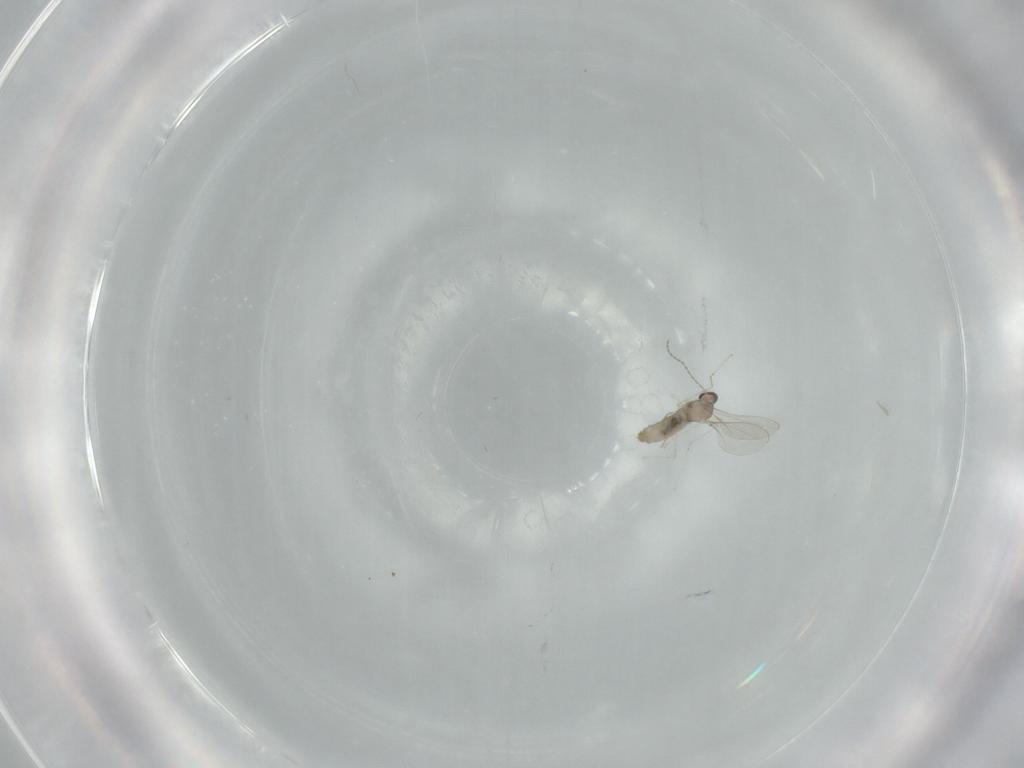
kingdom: Animalia
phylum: Arthropoda
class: Insecta
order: Diptera
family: Cecidomyiidae
